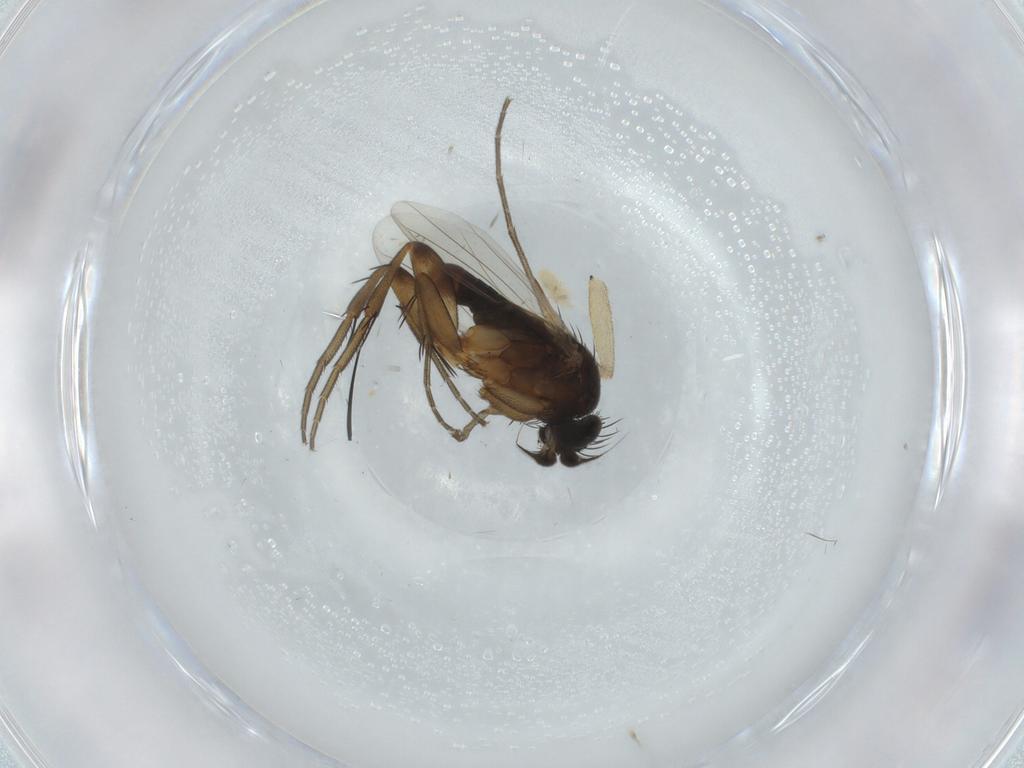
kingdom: Animalia
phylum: Arthropoda
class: Insecta
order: Diptera
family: Phoridae
